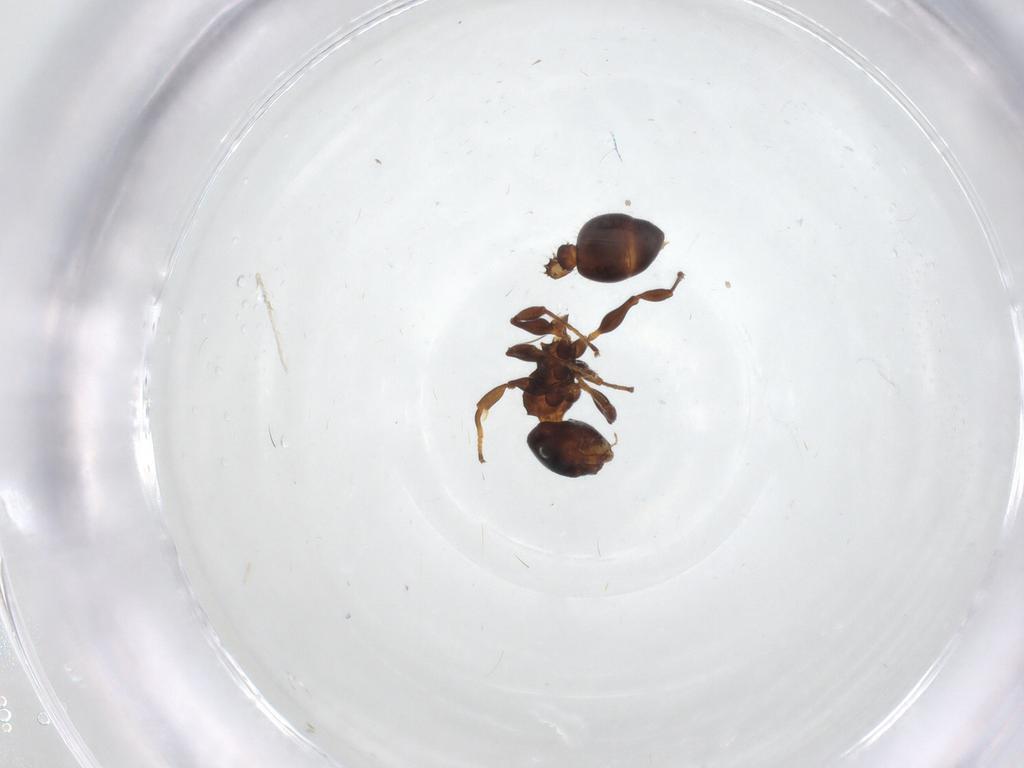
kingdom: Animalia
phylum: Arthropoda
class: Insecta
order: Hymenoptera
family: Formicidae
